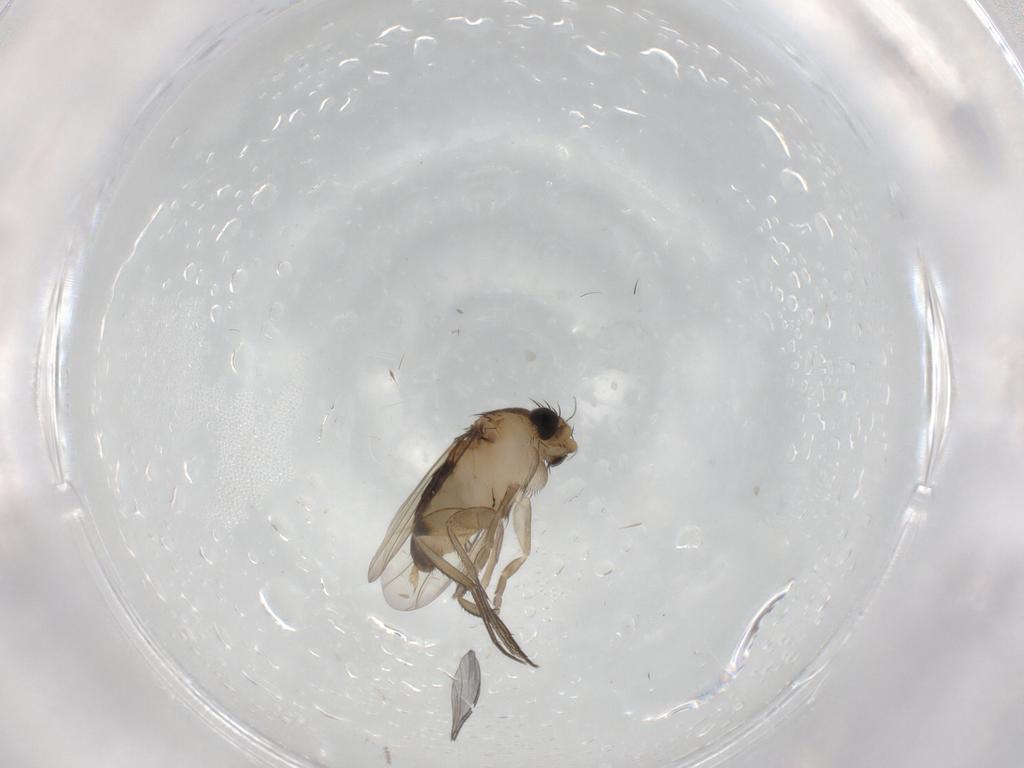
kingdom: Animalia
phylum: Arthropoda
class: Insecta
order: Diptera
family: Phoridae
